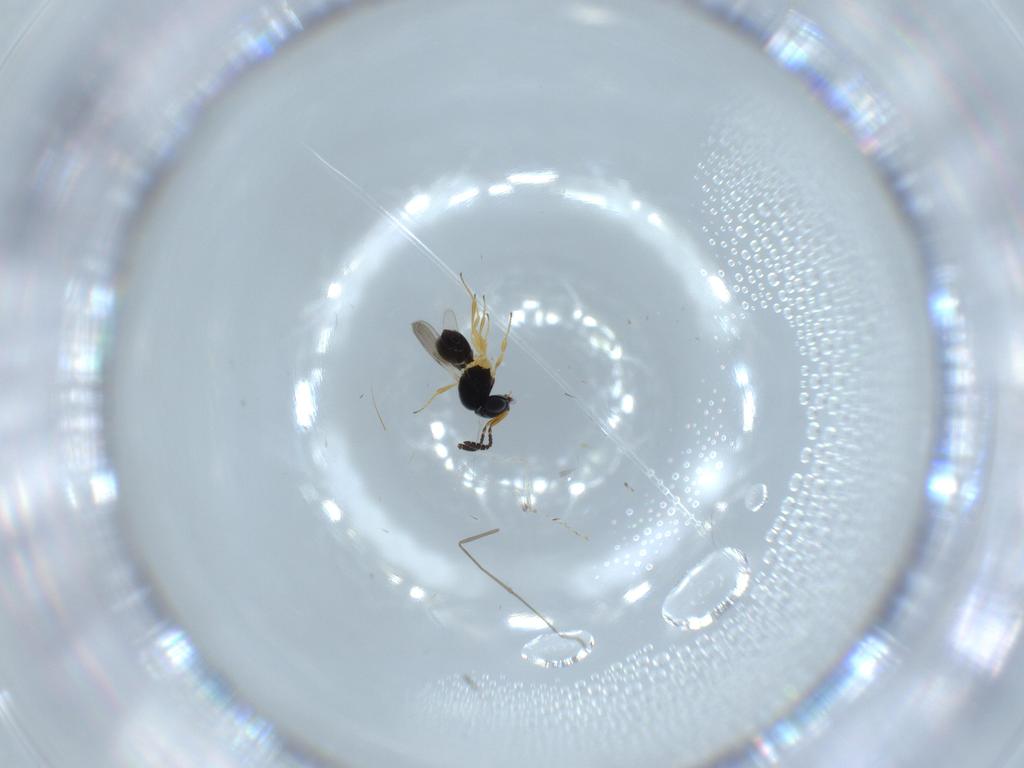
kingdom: Animalia
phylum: Arthropoda
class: Insecta
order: Hymenoptera
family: Scelionidae
